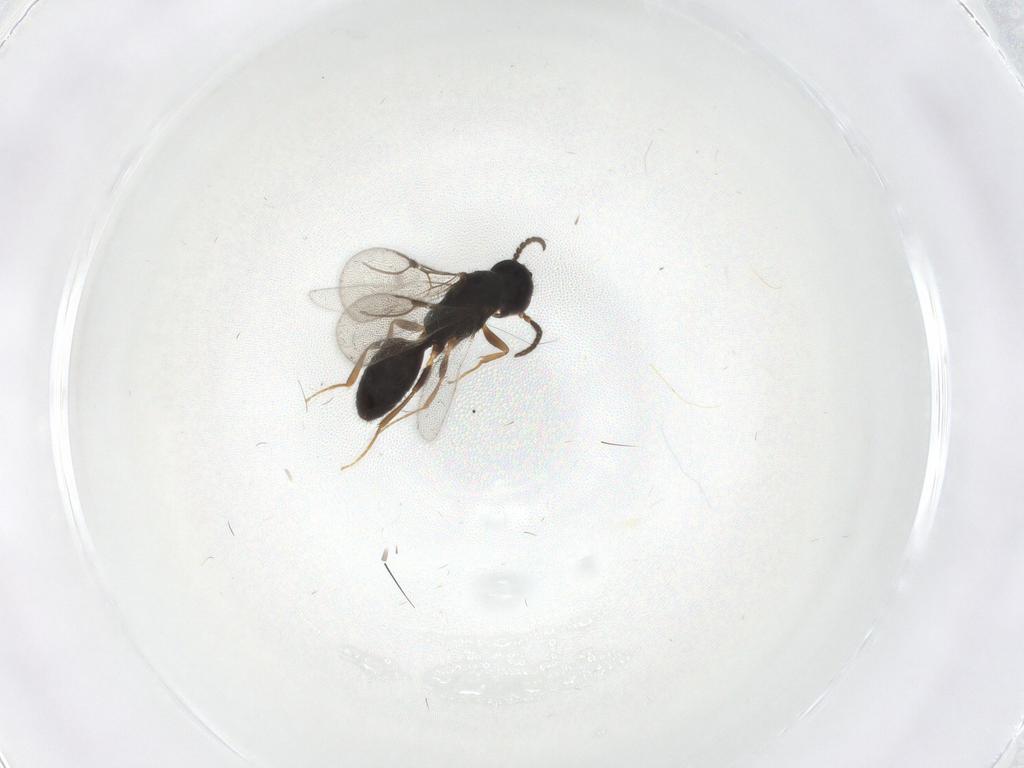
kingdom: Animalia
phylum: Arthropoda
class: Insecta
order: Hymenoptera
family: Bethylidae
